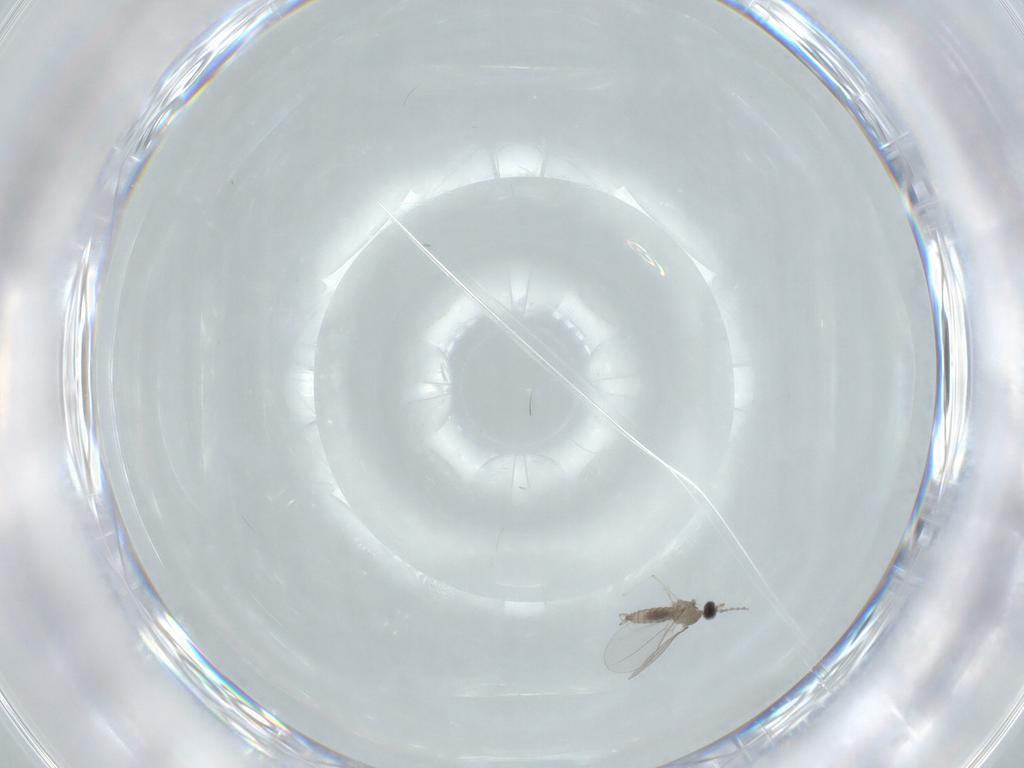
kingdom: Animalia
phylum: Arthropoda
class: Insecta
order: Diptera
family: Cecidomyiidae
